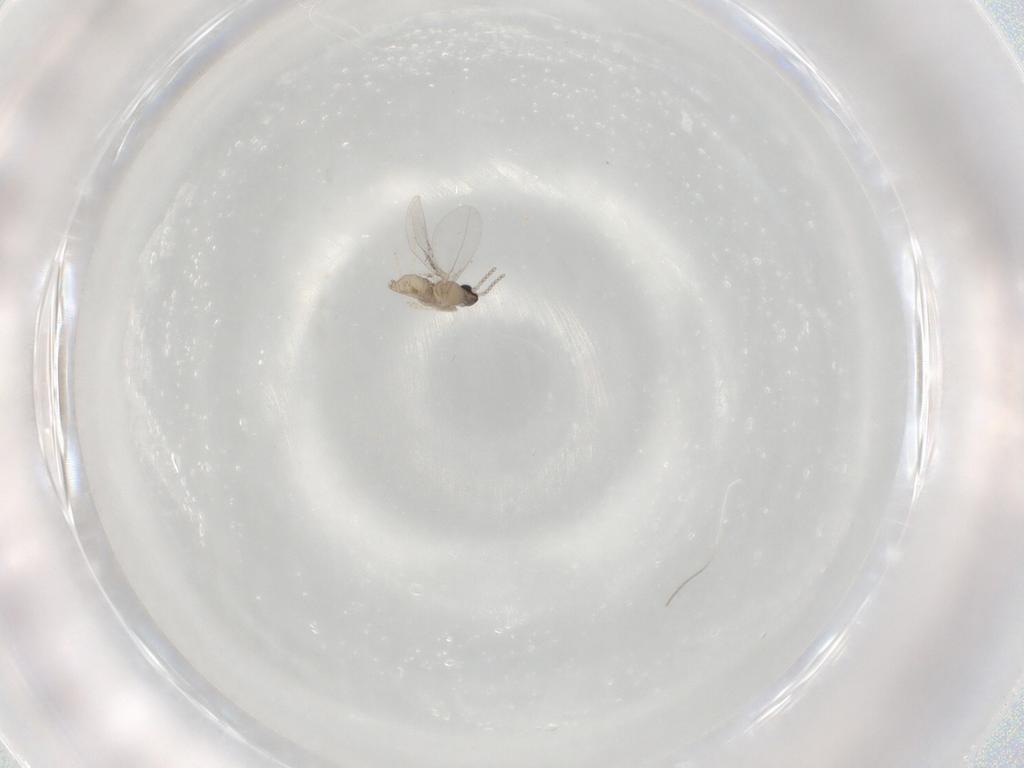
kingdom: Animalia
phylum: Arthropoda
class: Insecta
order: Diptera
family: Cecidomyiidae
